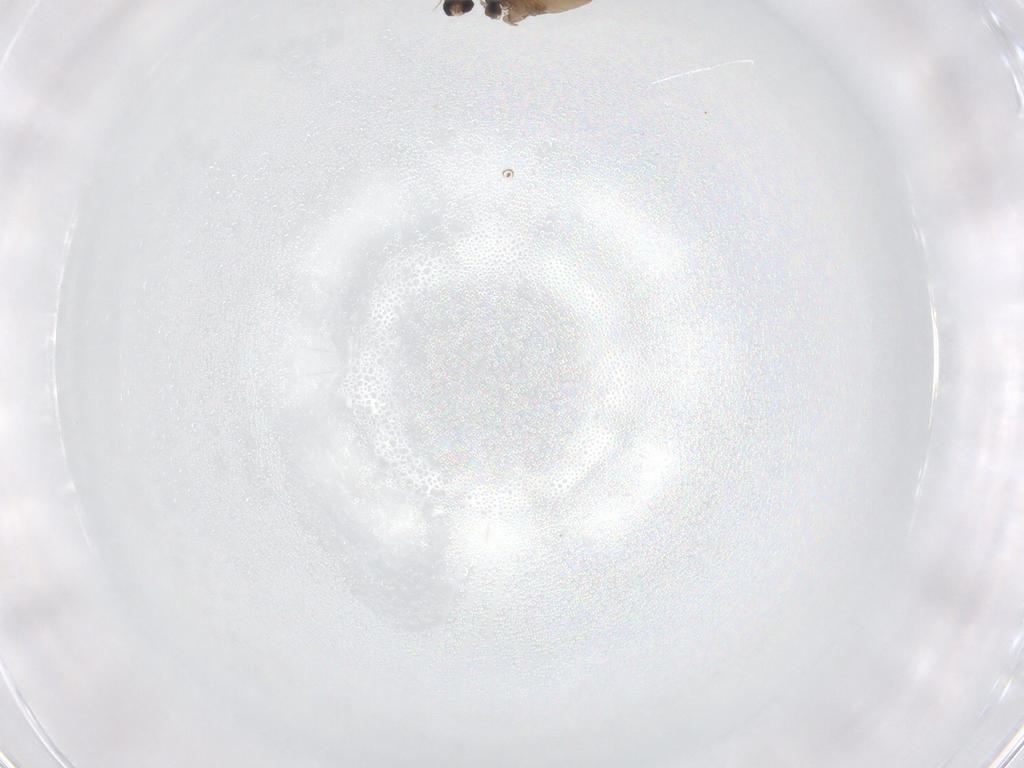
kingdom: Animalia
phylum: Arthropoda
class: Insecta
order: Diptera
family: Cecidomyiidae
